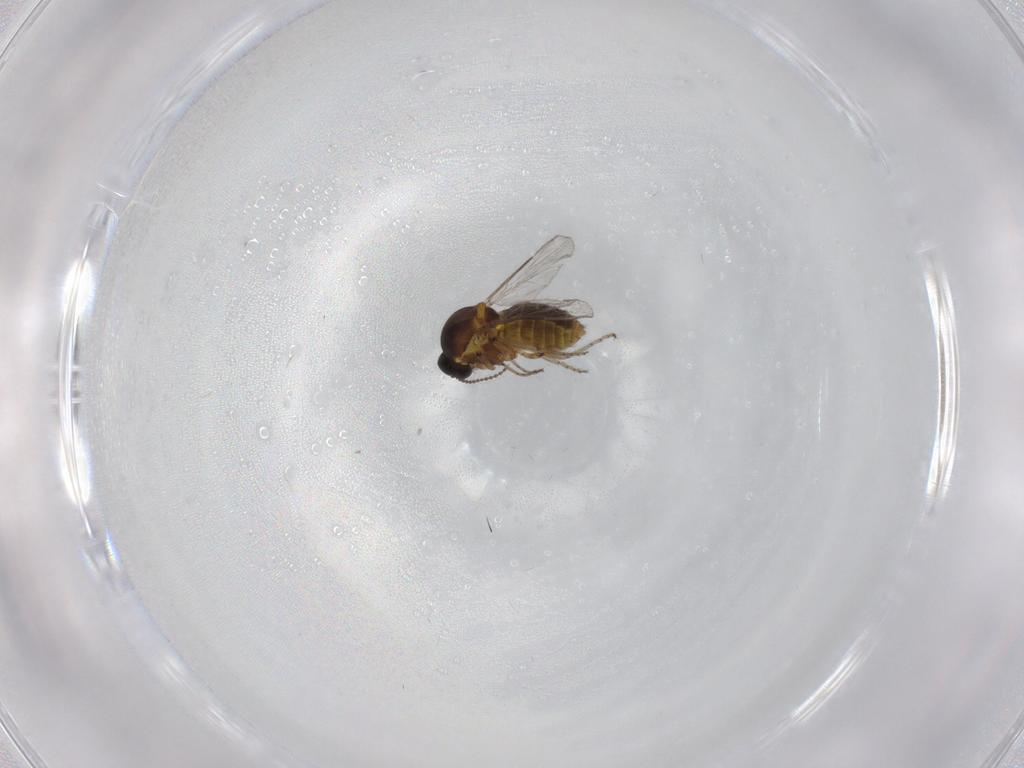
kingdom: Animalia
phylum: Arthropoda
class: Insecta
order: Diptera
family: Ceratopogonidae
